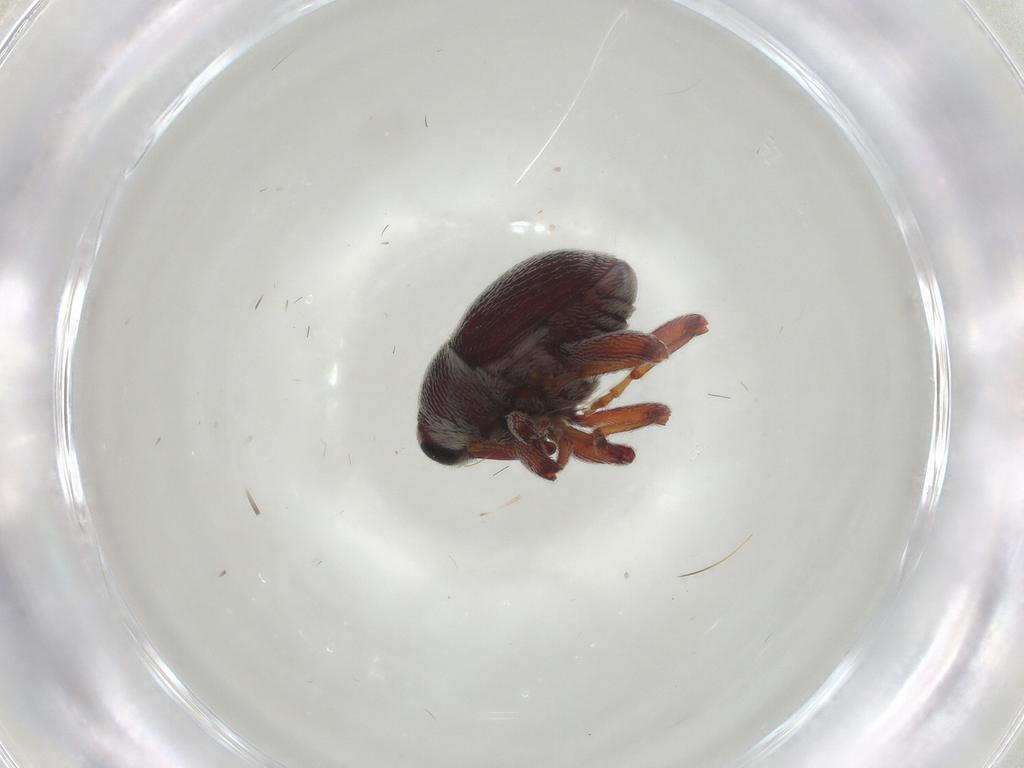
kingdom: Animalia
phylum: Arthropoda
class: Insecta
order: Coleoptera
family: Curculionidae
